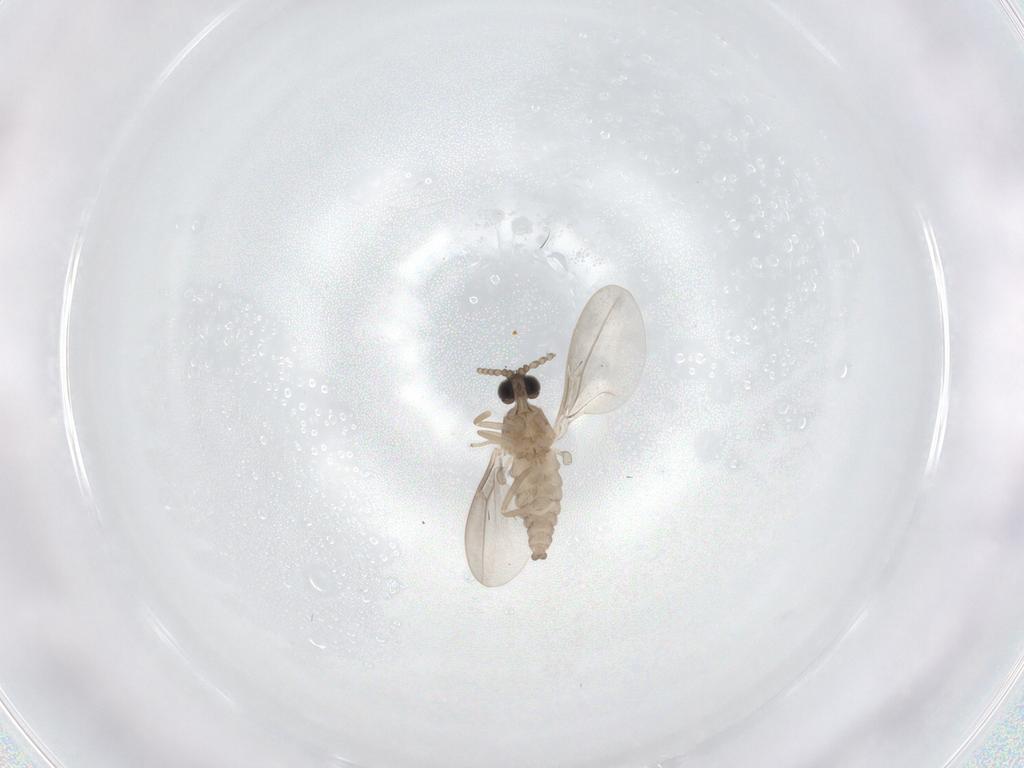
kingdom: Animalia
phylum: Arthropoda
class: Insecta
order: Diptera
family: Cecidomyiidae
